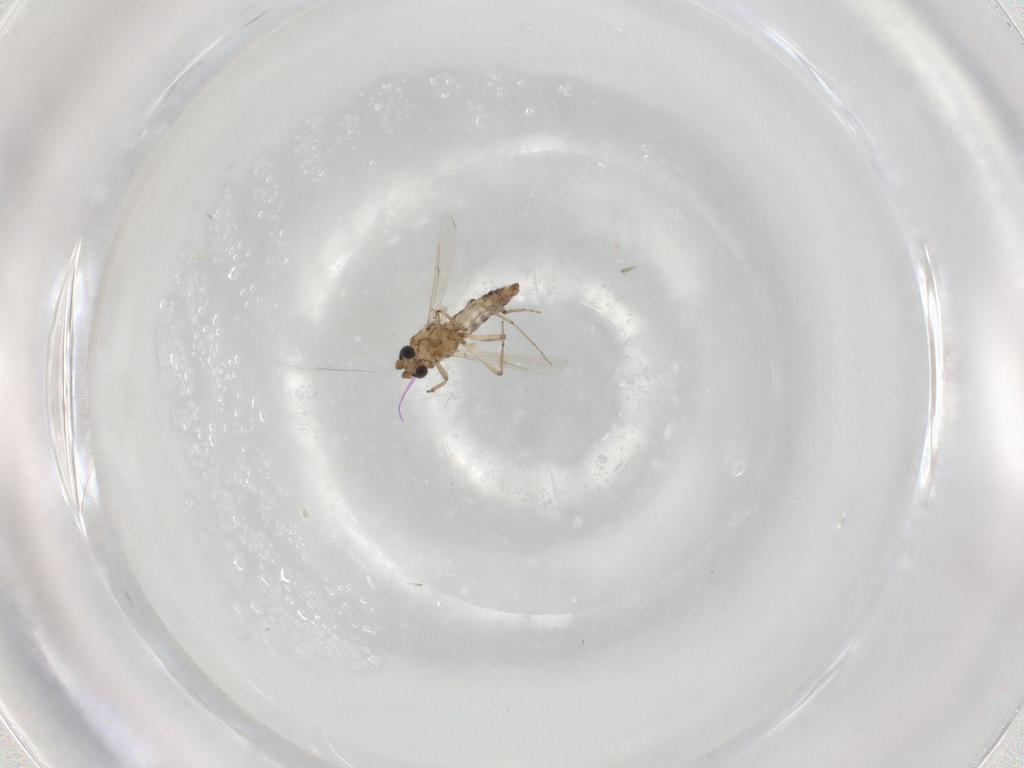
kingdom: Animalia
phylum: Arthropoda
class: Insecta
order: Diptera
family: Ceratopogonidae
